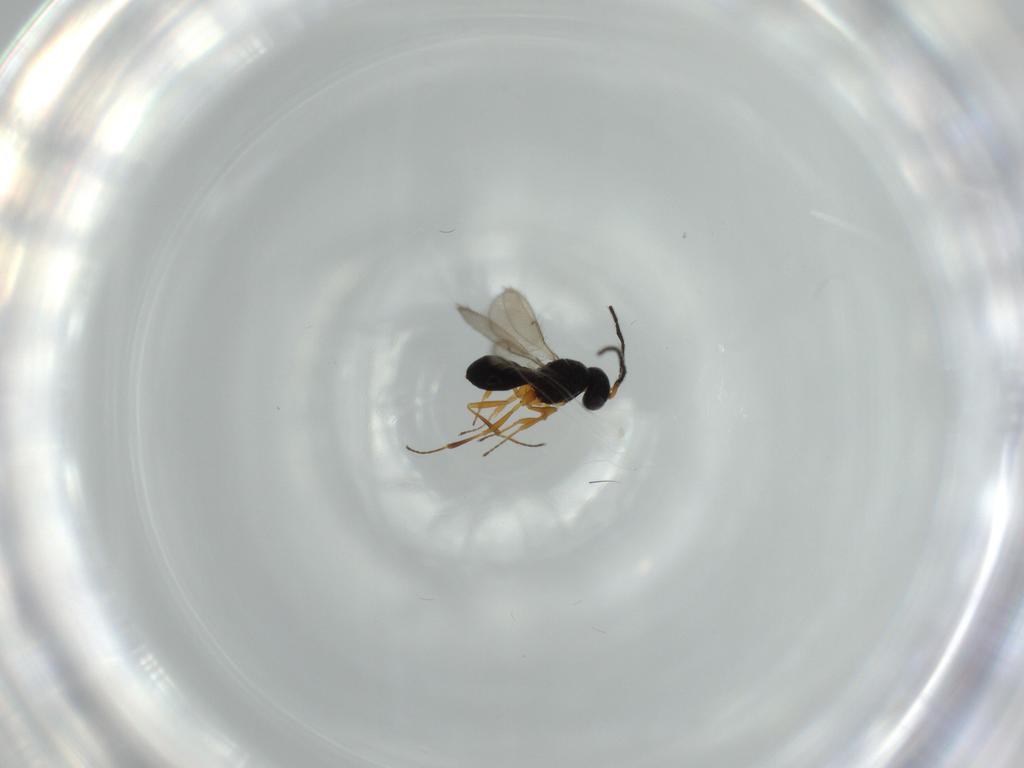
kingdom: Animalia
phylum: Arthropoda
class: Insecta
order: Hymenoptera
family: Scelionidae
